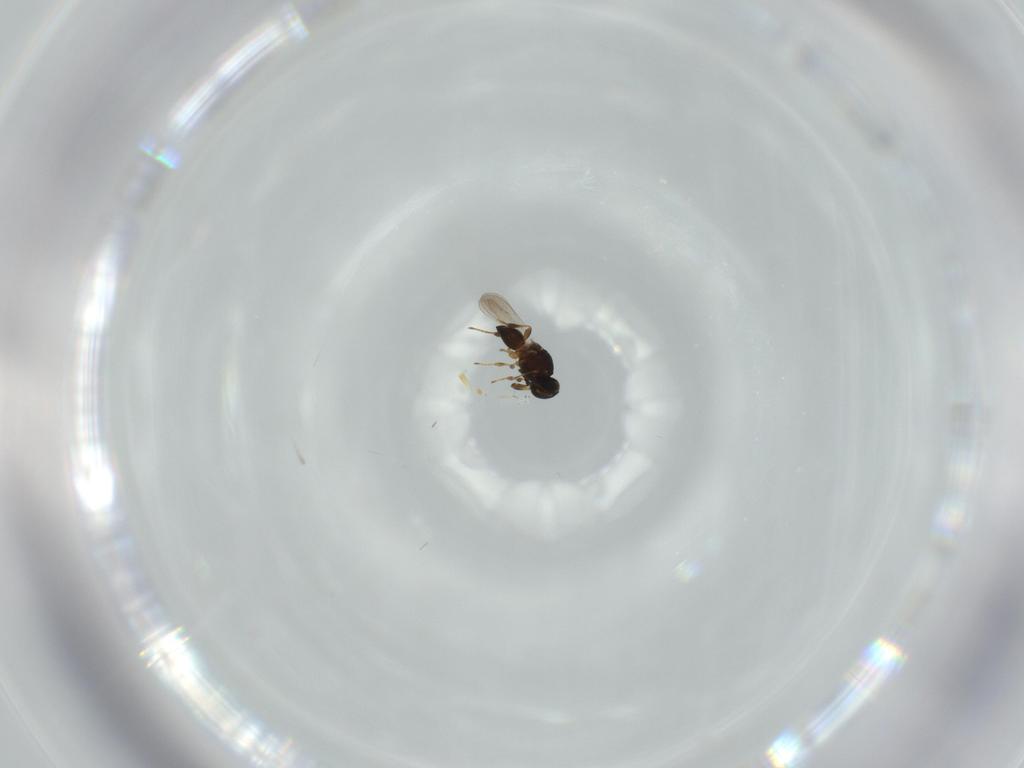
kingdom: Animalia
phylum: Arthropoda
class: Insecta
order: Hymenoptera
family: Platygastridae
